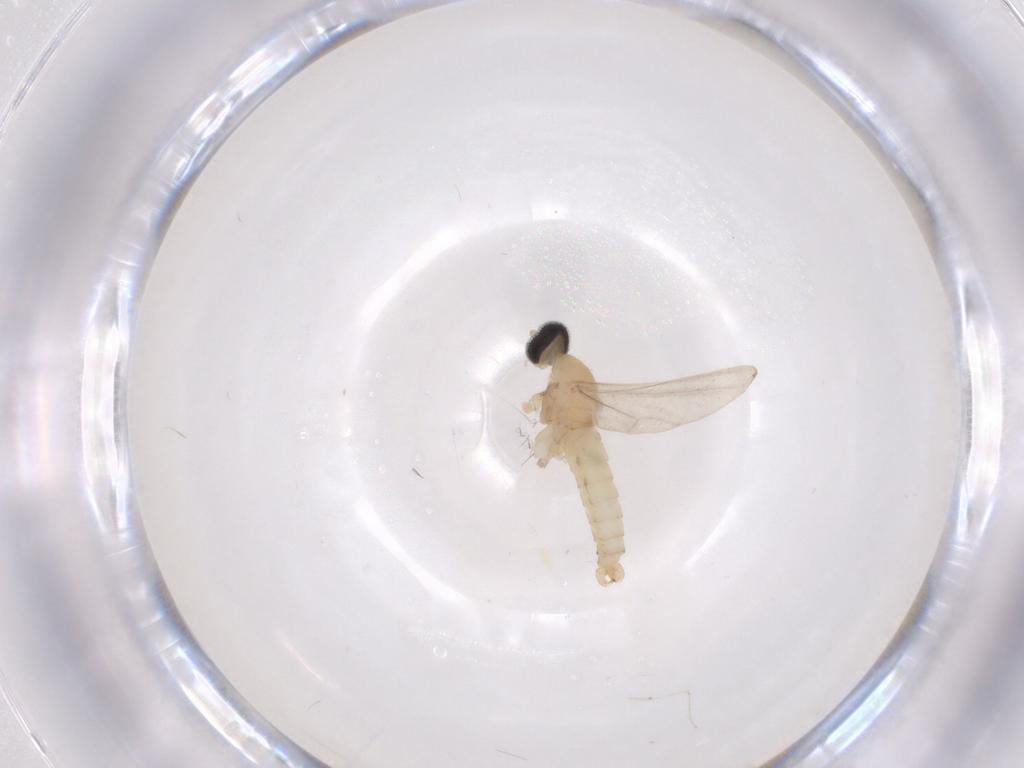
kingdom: Animalia
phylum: Arthropoda
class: Insecta
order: Diptera
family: Cecidomyiidae
